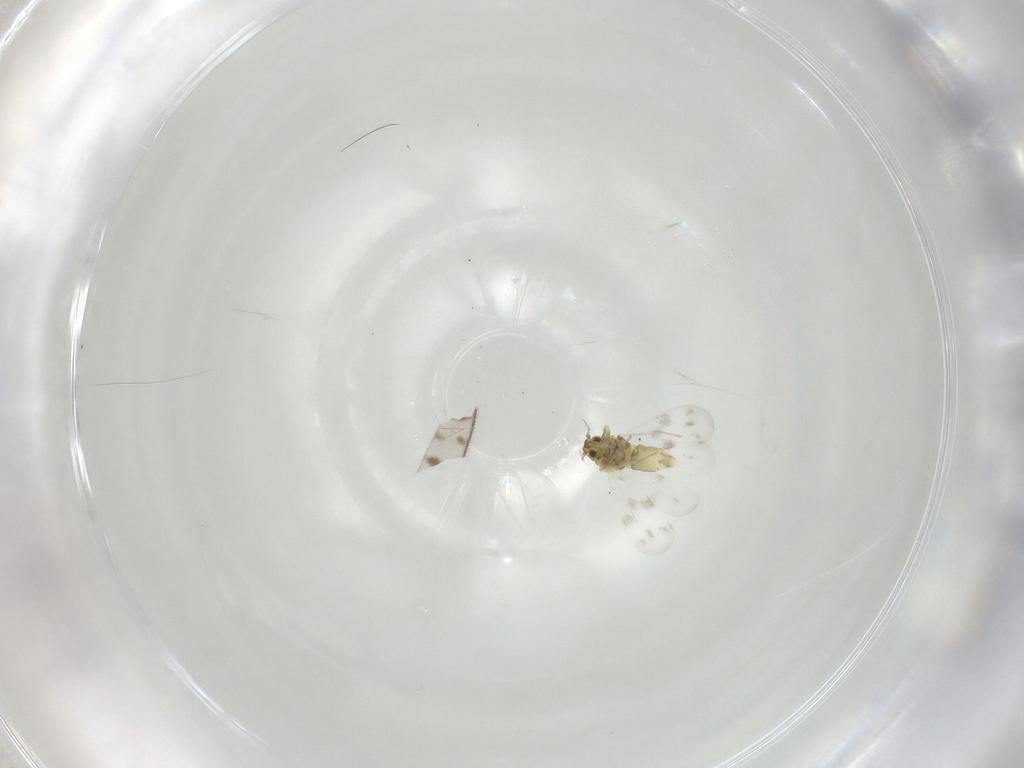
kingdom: Animalia
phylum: Arthropoda
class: Insecta
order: Hemiptera
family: Aleyrodidae
